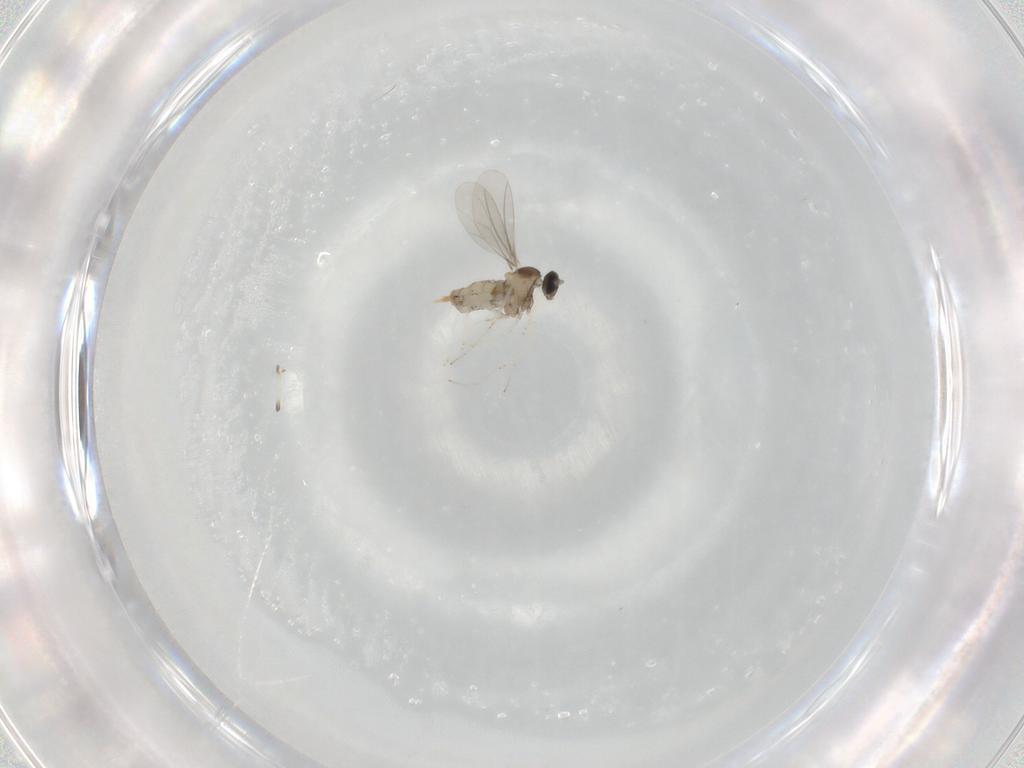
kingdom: Animalia
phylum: Arthropoda
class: Insecta
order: Diptera
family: Cecidomyiidae
